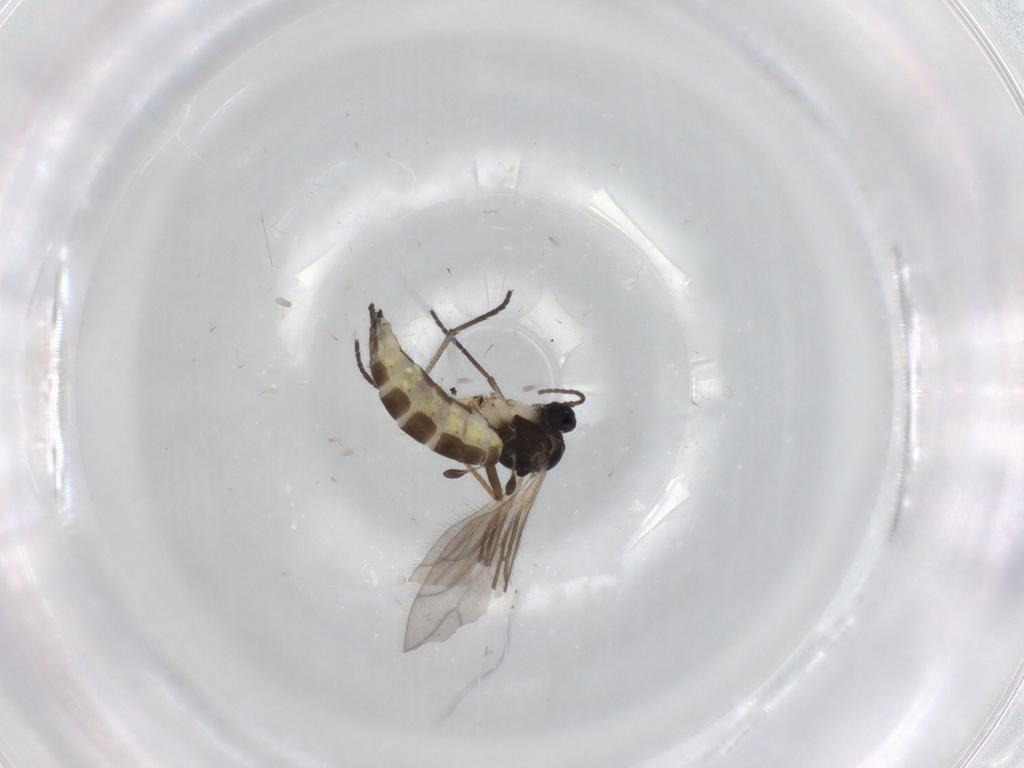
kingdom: Animalia
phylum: Arthropoda
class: Insecta
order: Diptera
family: Sciaridae
